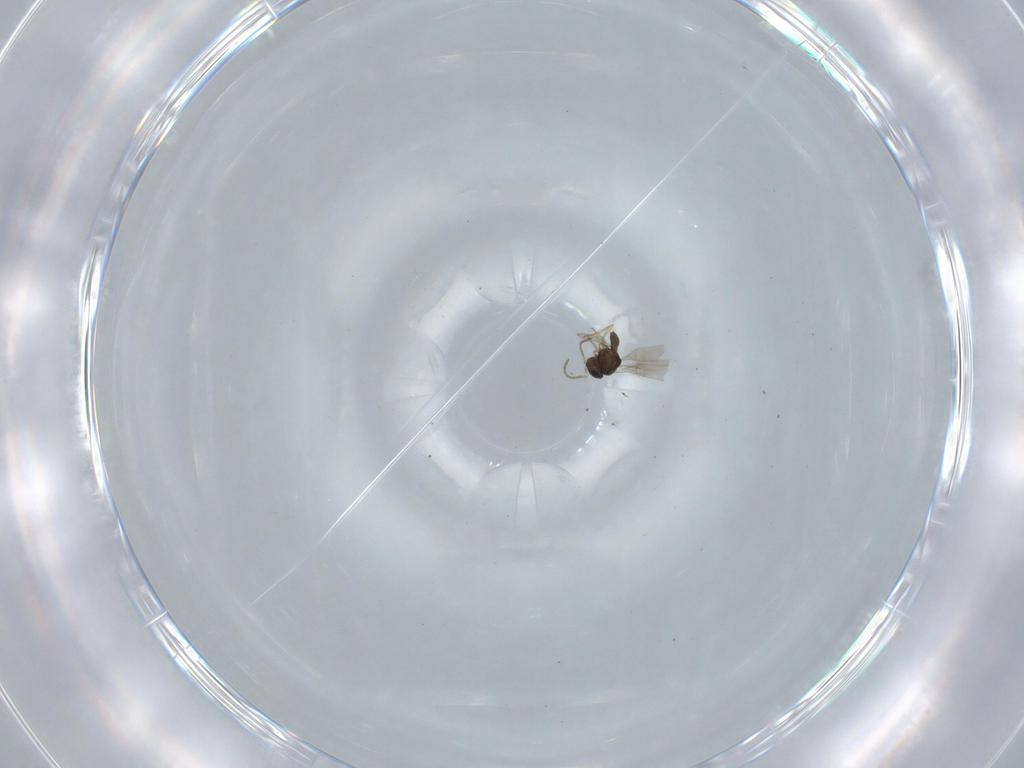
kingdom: Animalia
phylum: Arthropoda
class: Insecta
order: Hymenoptera
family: Scelionidae
